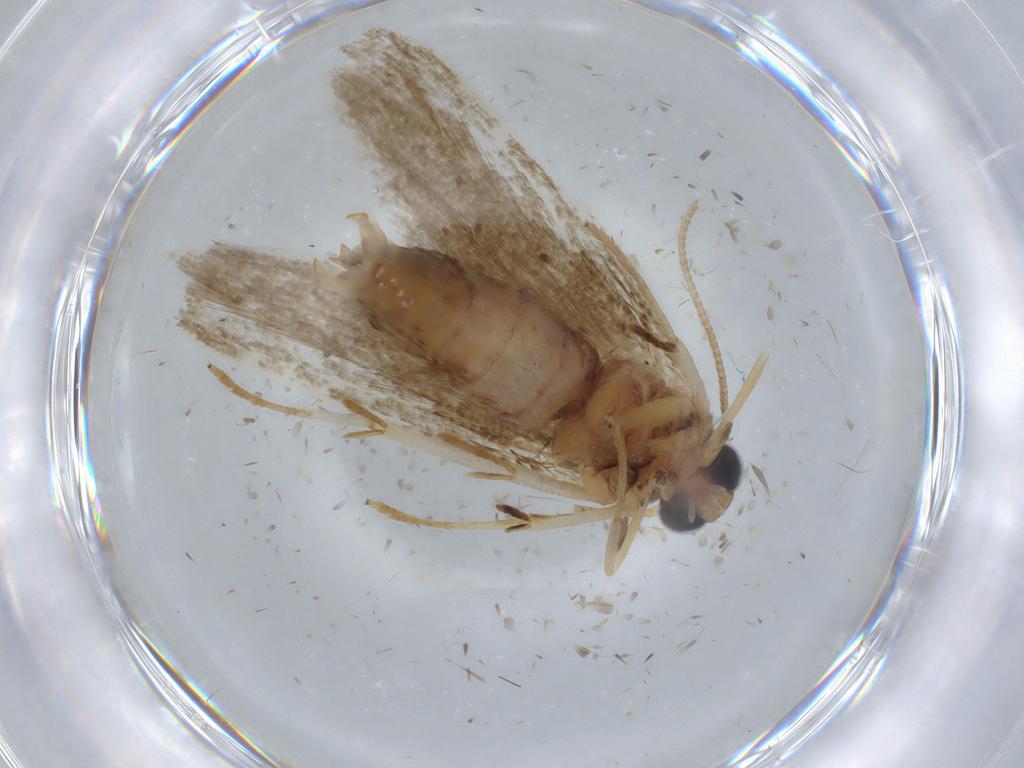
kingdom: Animalia
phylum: Arthropoda
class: Insecta
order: Lepidoptera
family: Blastobasidae
